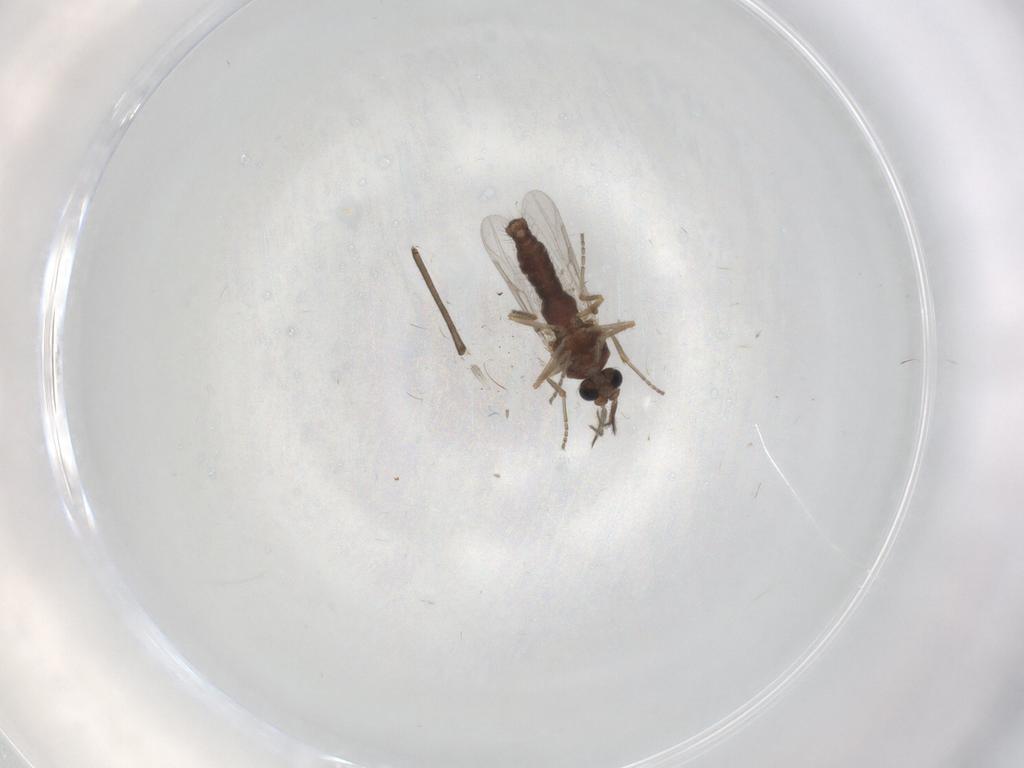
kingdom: Animalia
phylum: Arthropoda
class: Insecta
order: Diptera
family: Ceratopogonidae
